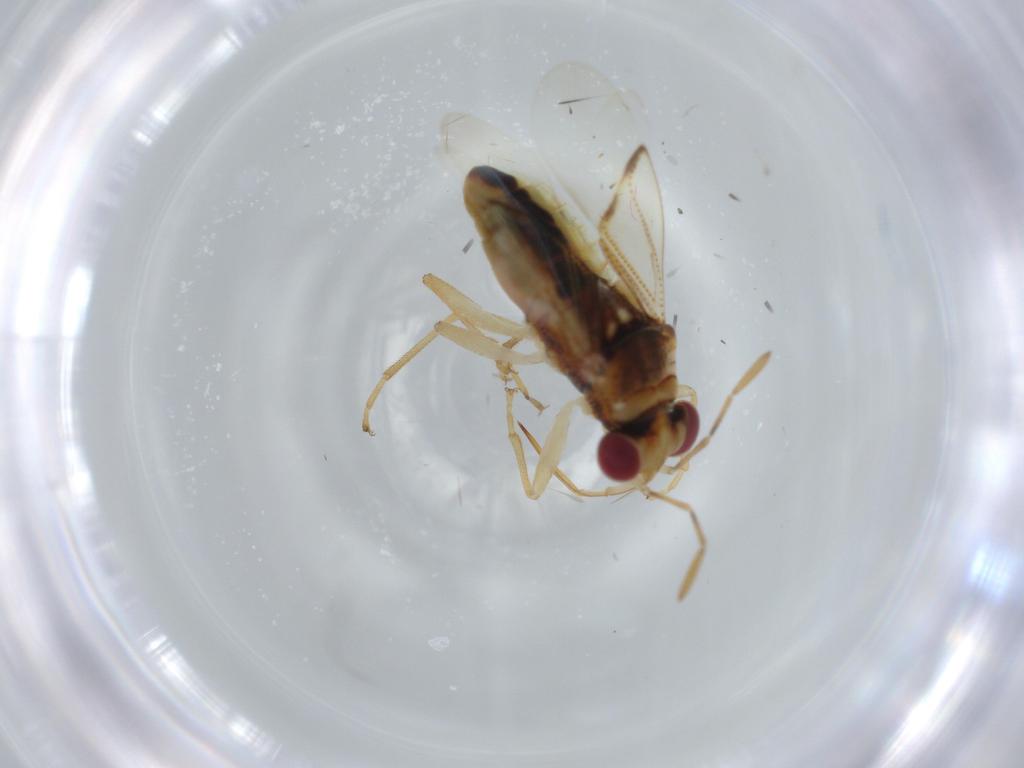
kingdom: Animalia
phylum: Arthropoda
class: Insecta
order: Hemiptera
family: Geocoridae
